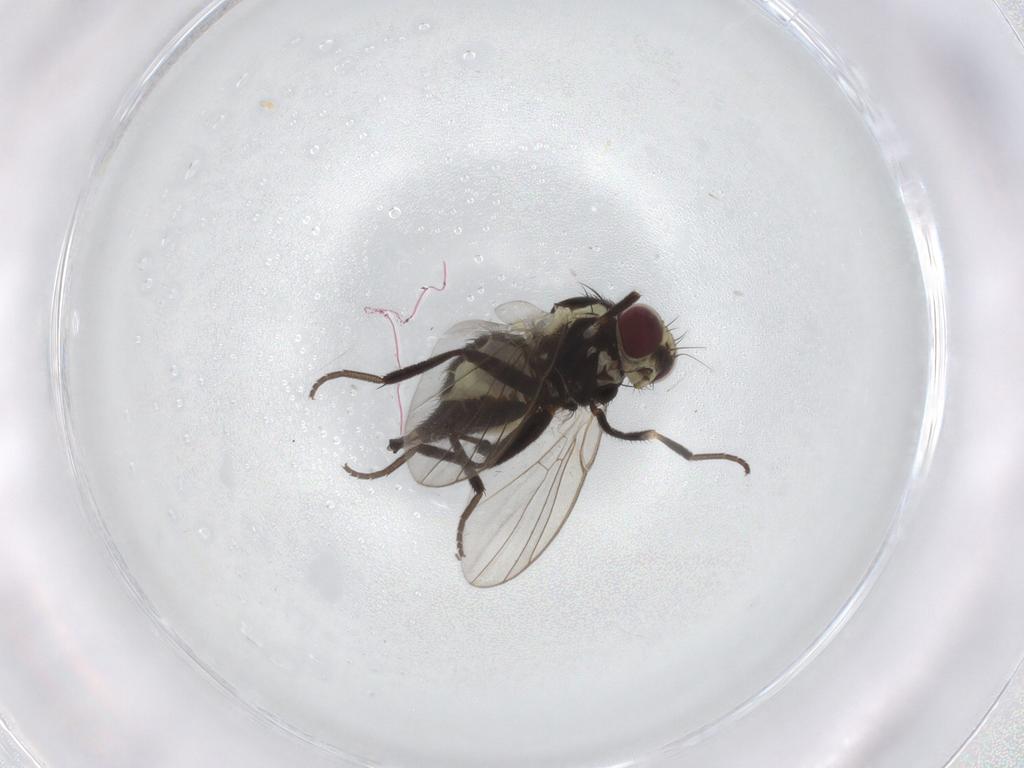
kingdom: Animalia
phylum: Arthropoda
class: Insecta
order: Diptera
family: Agromyzidae
